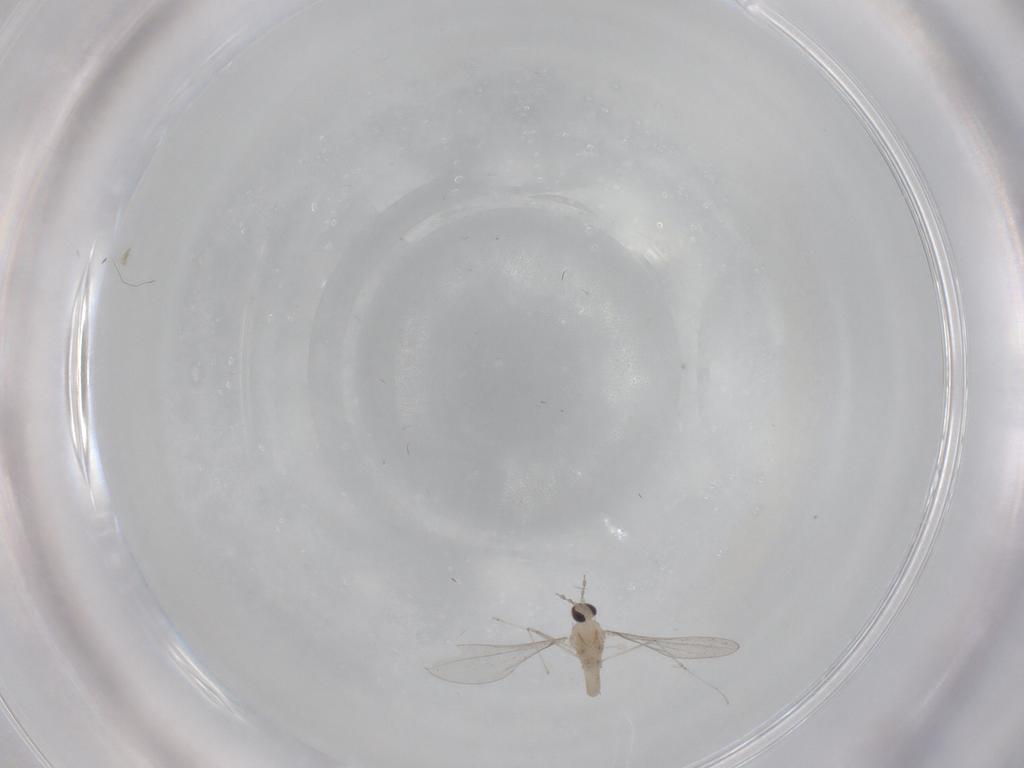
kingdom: Animalia
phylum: Arthropoda
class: Insecta
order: Diptera
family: Cecidomyiidae
